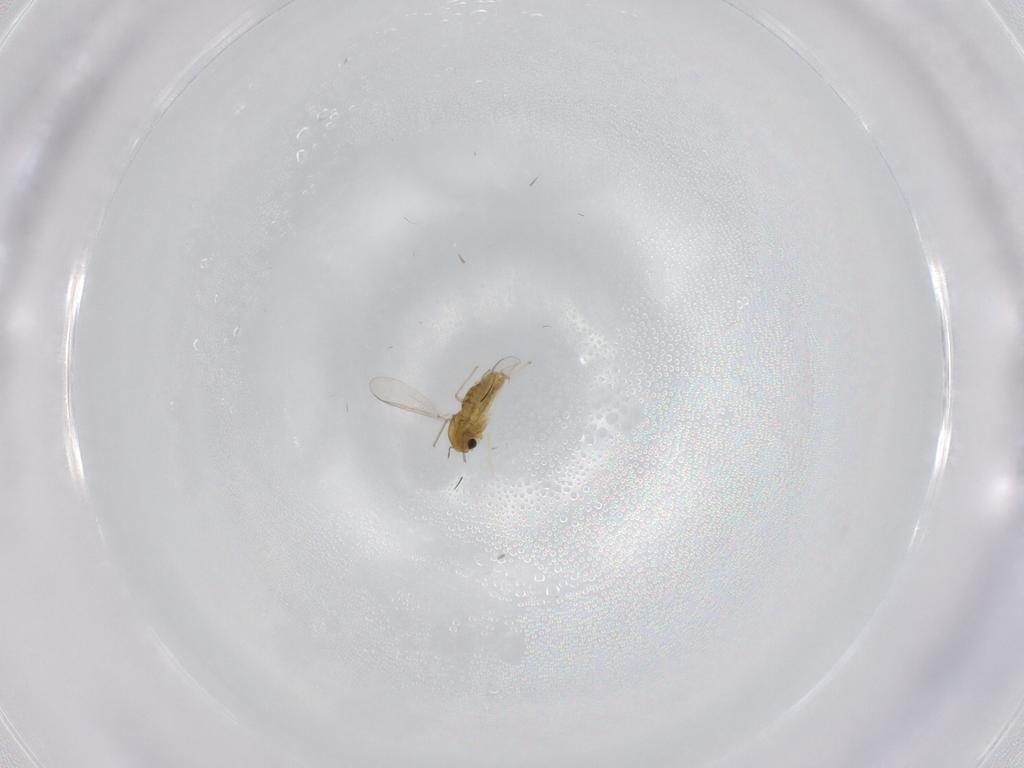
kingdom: Animalia
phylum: Arthropoda
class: Insecta
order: Diptera
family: Chironomidae
